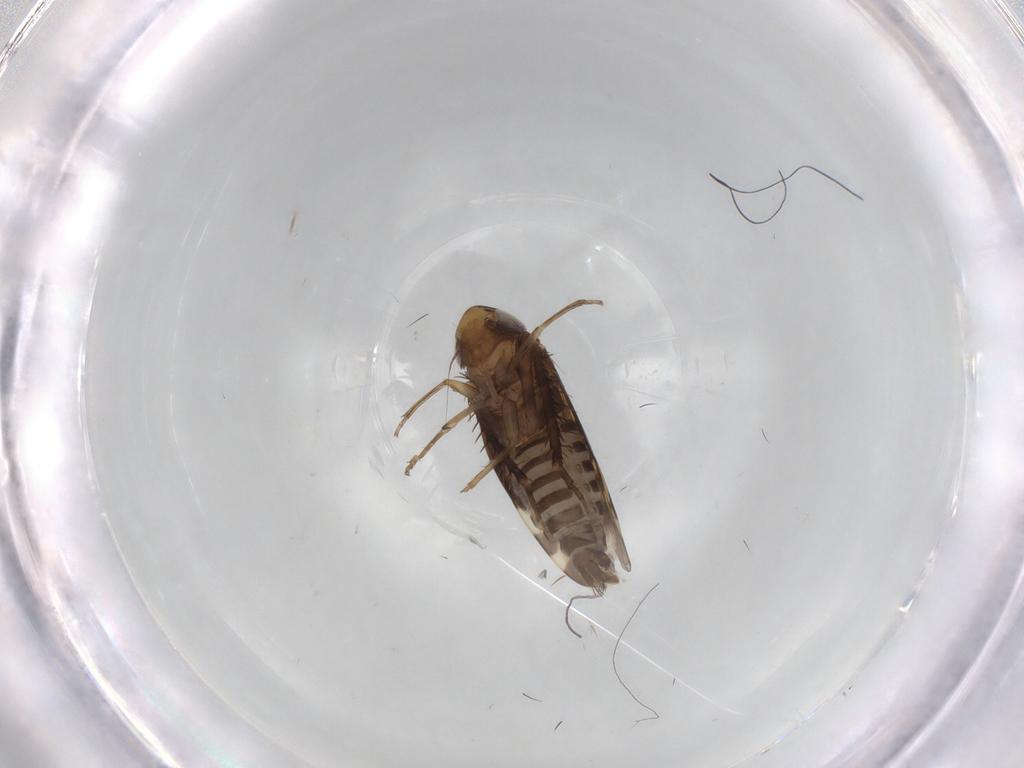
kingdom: Animalia
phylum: Arthropoda
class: Insecta
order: Hemiptera
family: Cicadellidae
